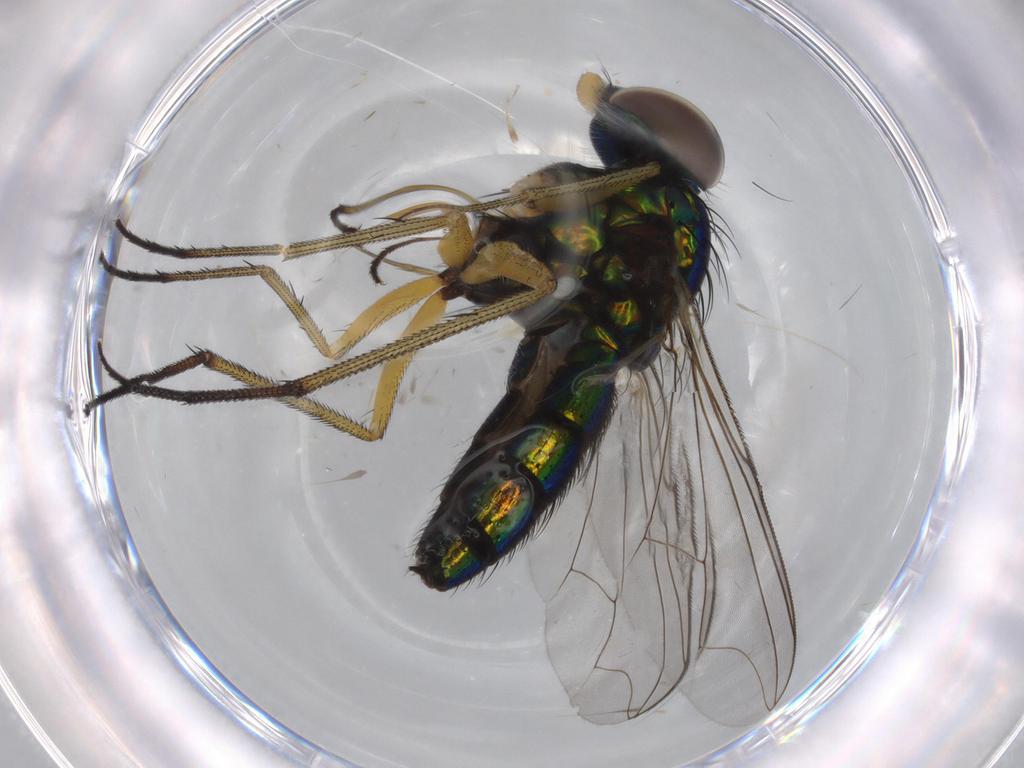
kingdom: Animalia
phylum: Arthropoda
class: Insecta
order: Diptera
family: Dolichopodidae
